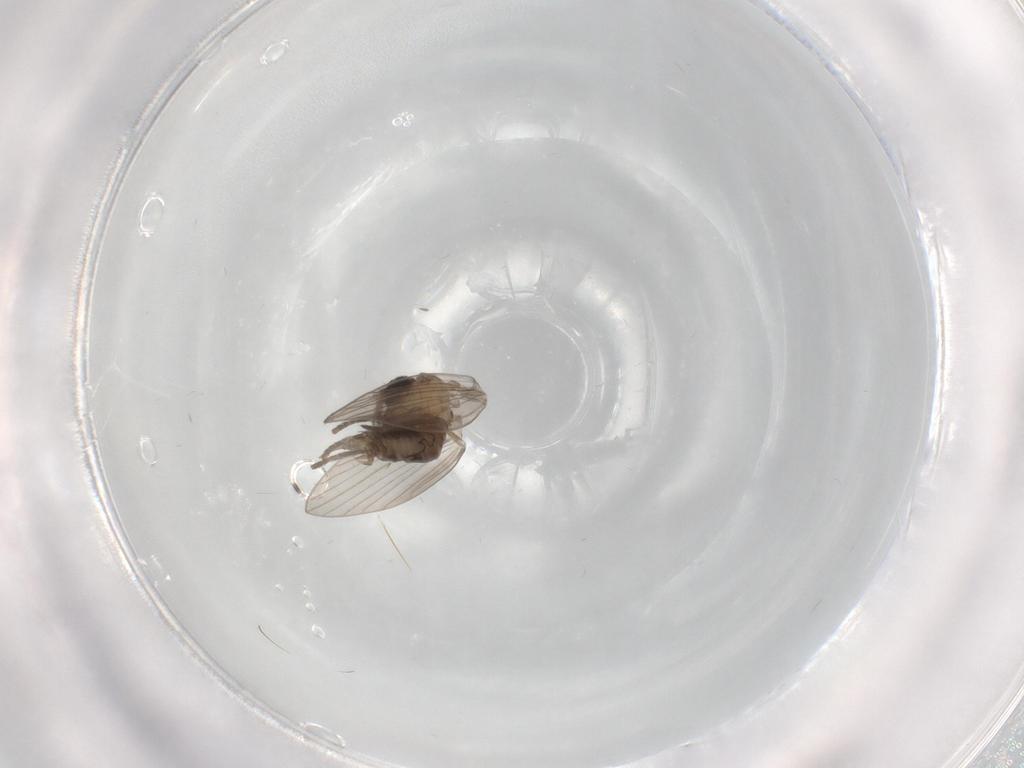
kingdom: Animalia
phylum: Arthropoda
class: Insecta
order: Diptera
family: Psychodidae
